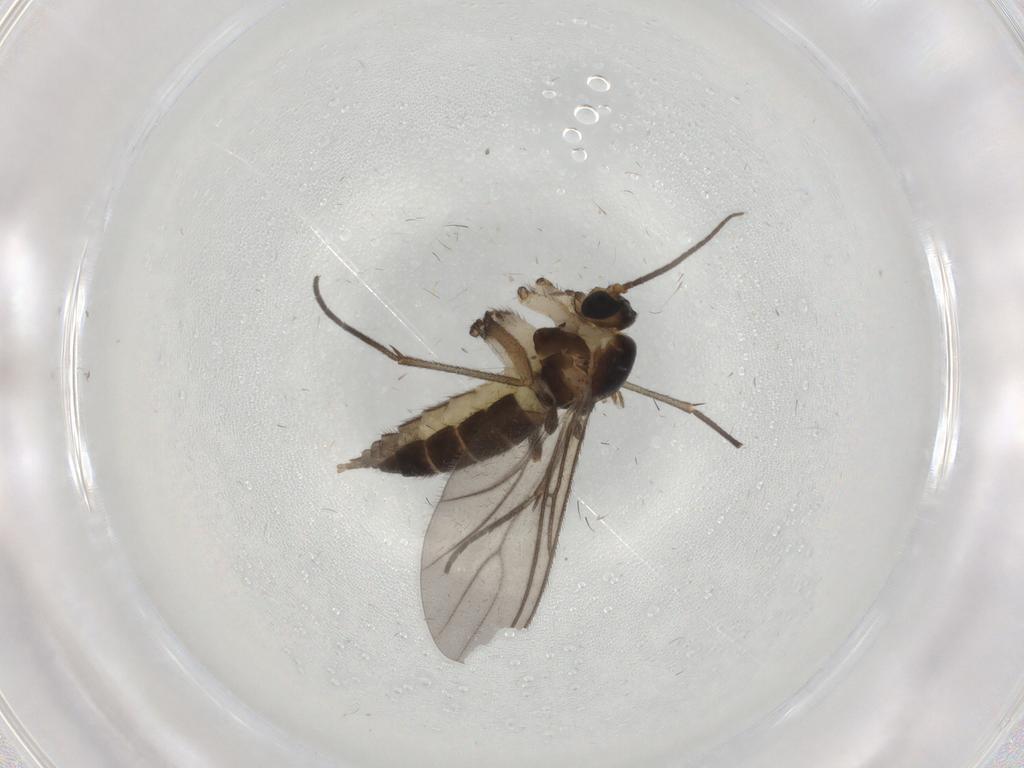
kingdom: Animalia
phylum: Arthropoda
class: Insecta
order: Diptera
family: Sciaridae
